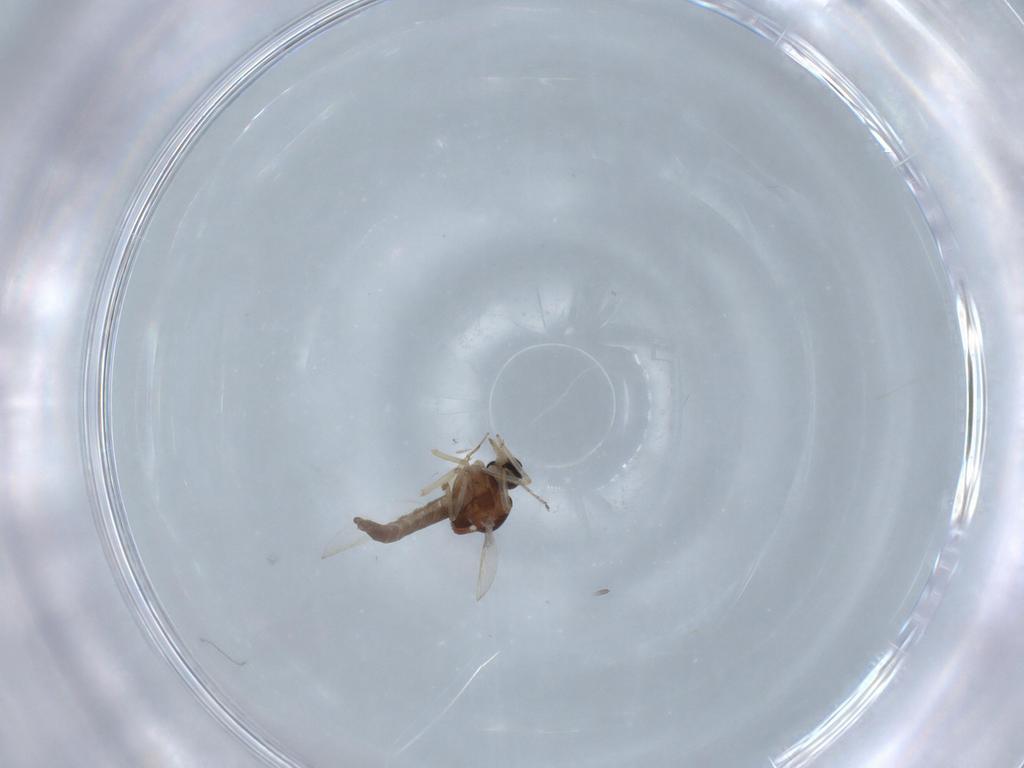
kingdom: Animalia
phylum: Arthropoda
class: Insecta
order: Diptera
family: Ceratopogonidae
